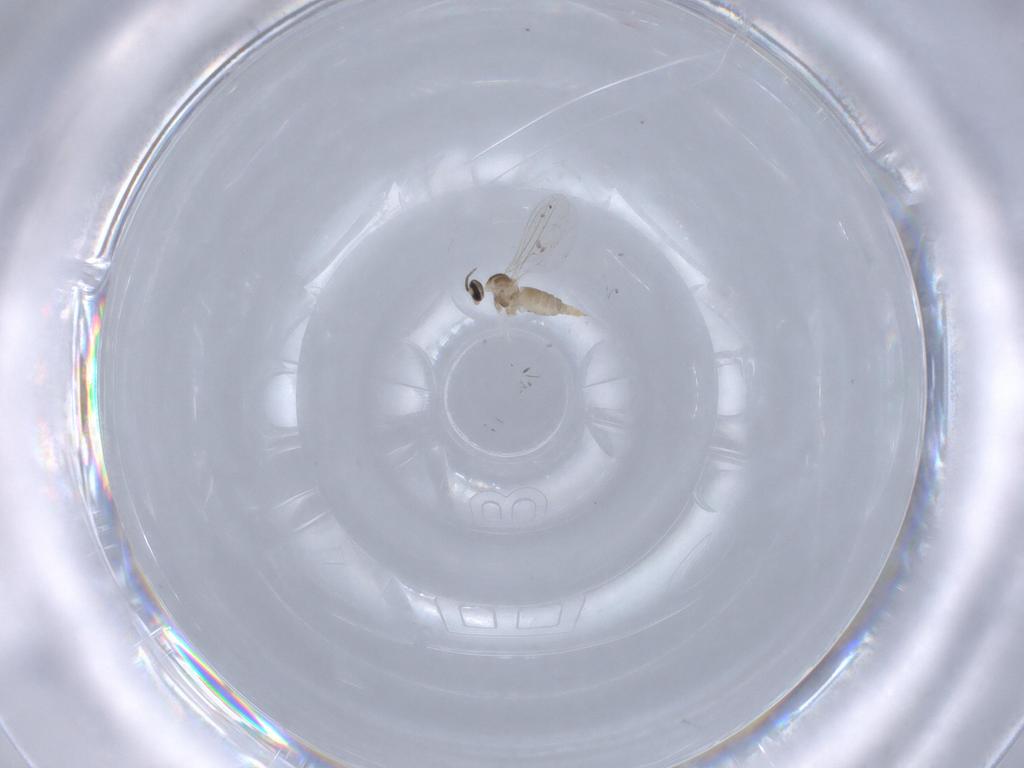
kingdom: Animalia
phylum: Arthropoda
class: Insecta
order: Diptera
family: Cecidomyiidae
